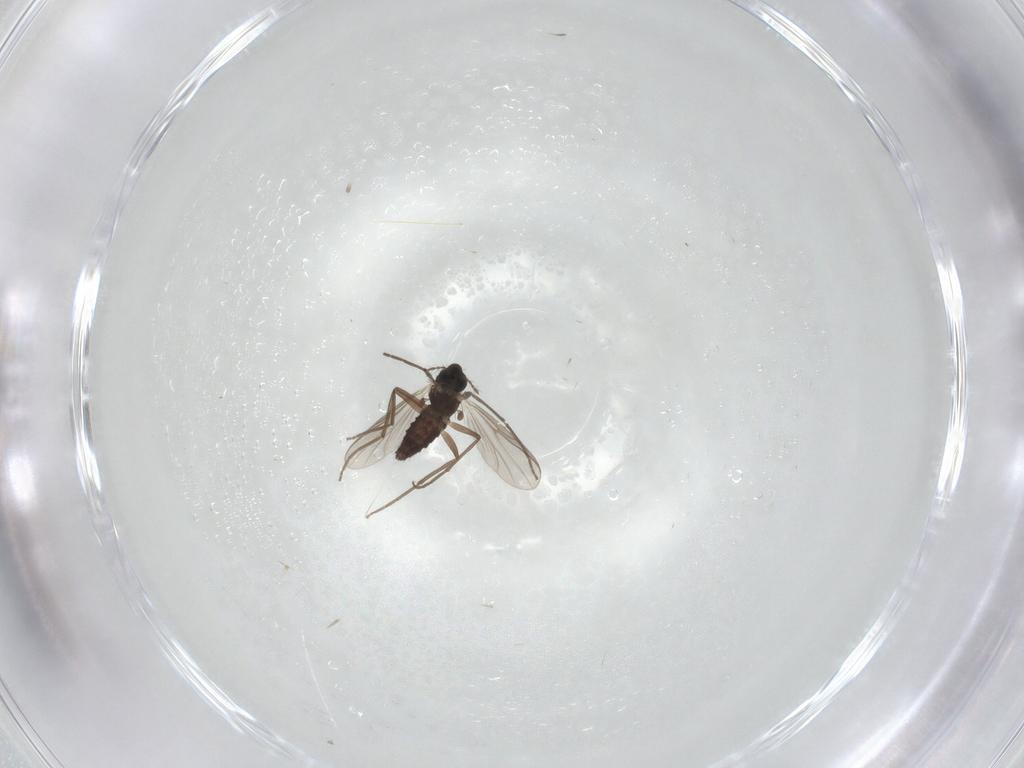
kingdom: Animalia
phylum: Arthropoda
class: Insecta
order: Diptera
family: Chironomidae
